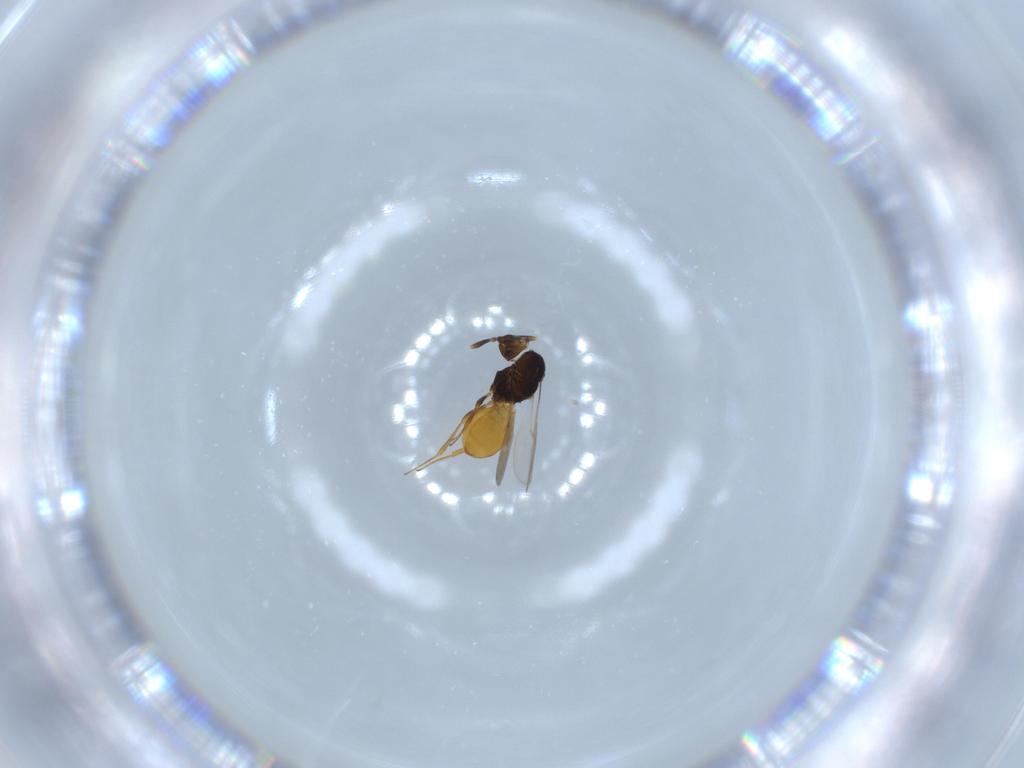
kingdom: Animalia
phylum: Arthropoda
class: Insecta
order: Hymenoptera
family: Scelionidae
